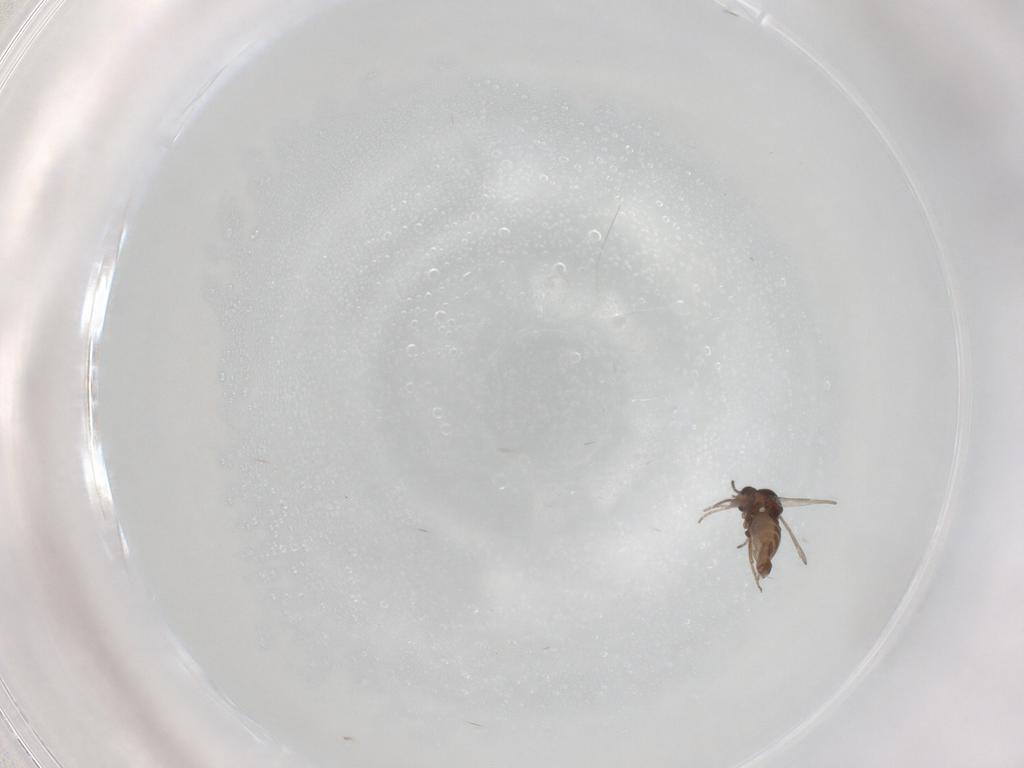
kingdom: Animalia
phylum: Arthropoda
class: Insecta
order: Diptera
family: Ceratopogonidae
